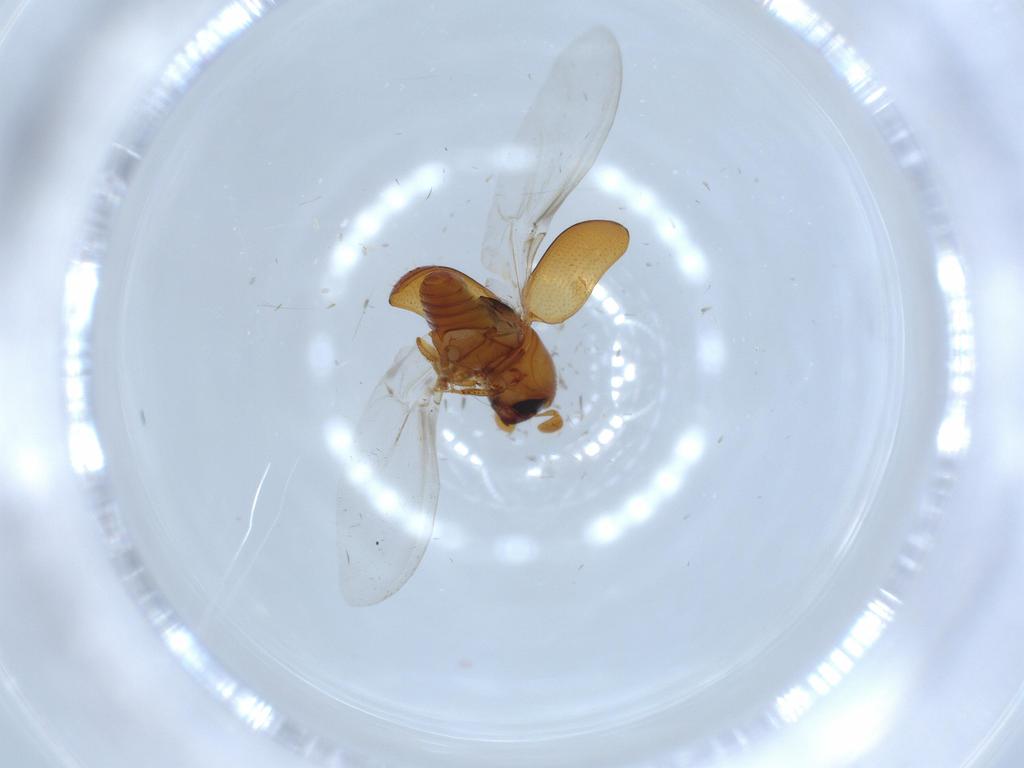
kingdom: Animalia
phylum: Arthropoda
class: Insecta
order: Coleoptera
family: Curculionidae
